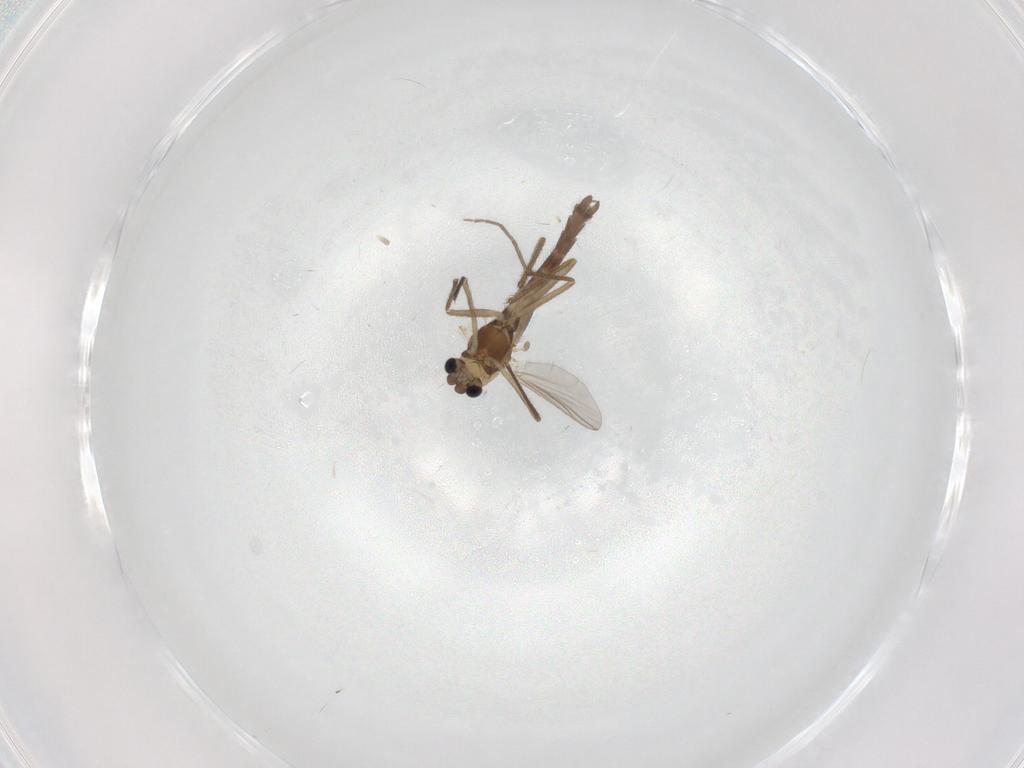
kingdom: Animalia
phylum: Arthropoda
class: Insecta
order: Diptera
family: Chironomidae
